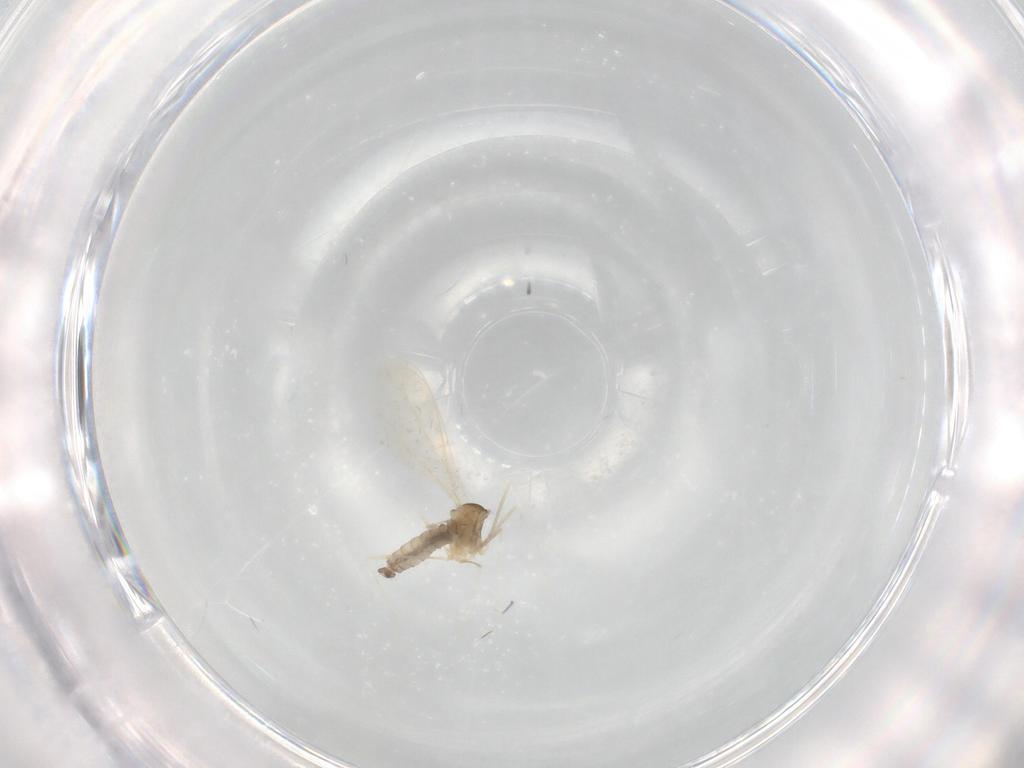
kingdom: Animalia
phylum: Arthropoda
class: Insecta
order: Diptera
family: Cecidomyiidae
